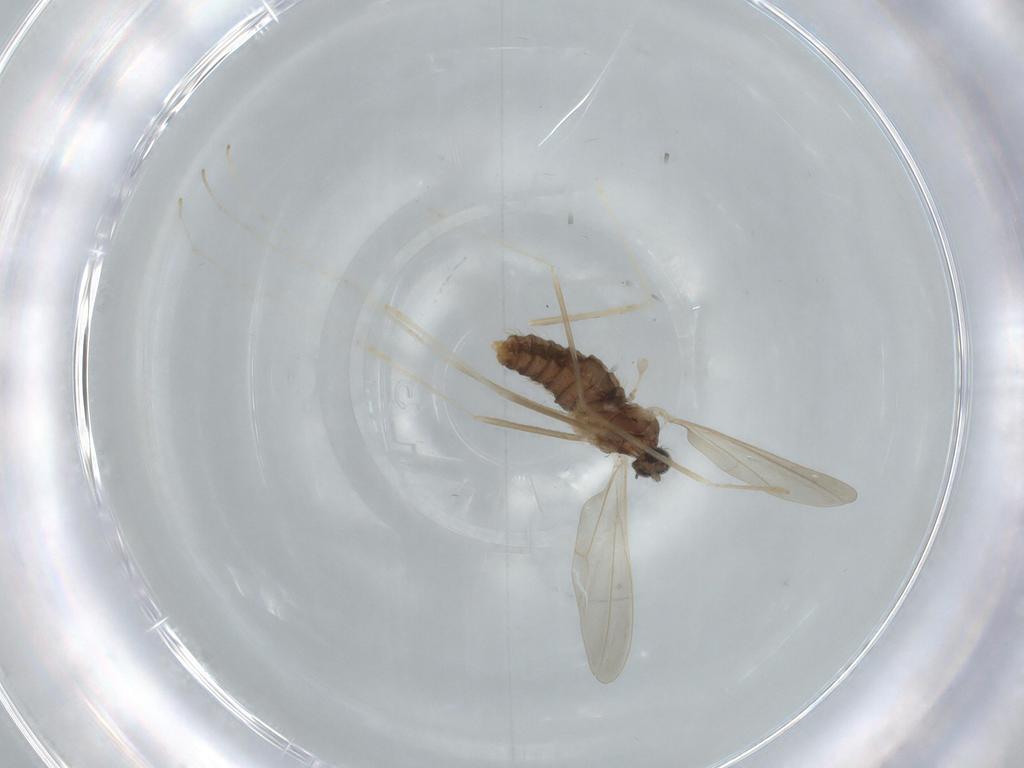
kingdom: Animalia
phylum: Arthropoda
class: Insecta
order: Diptera
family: Cecidomyiidae
